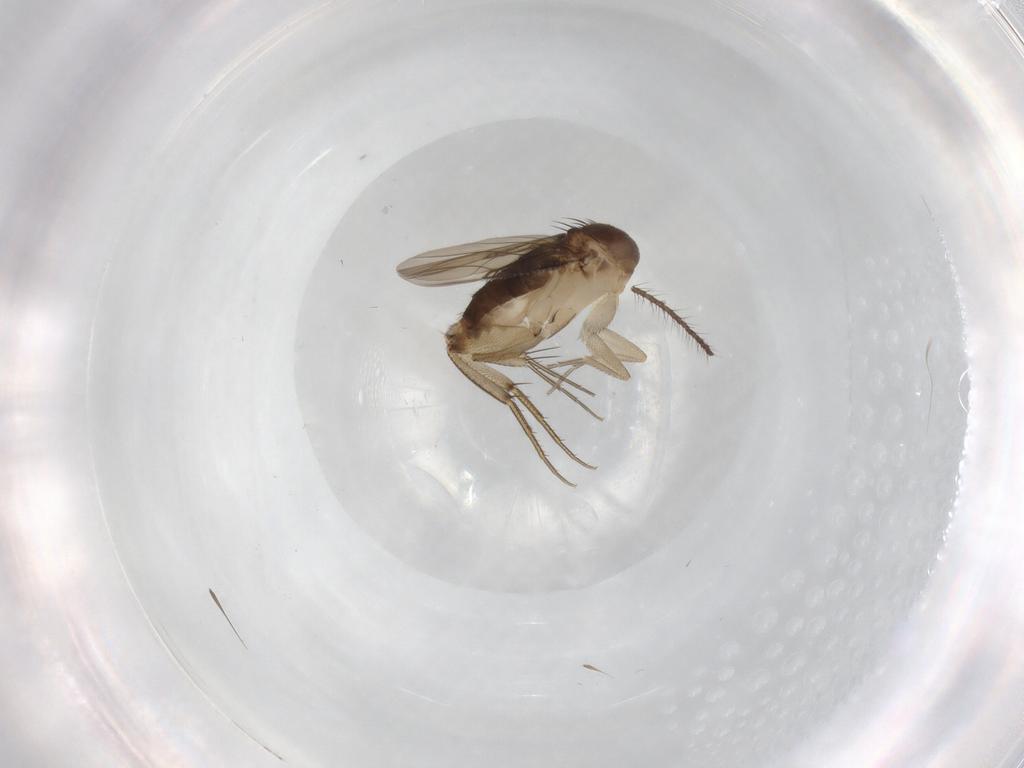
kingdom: Animalia
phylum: Arthropoda
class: Insecta
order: Diptera
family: Phoridae
